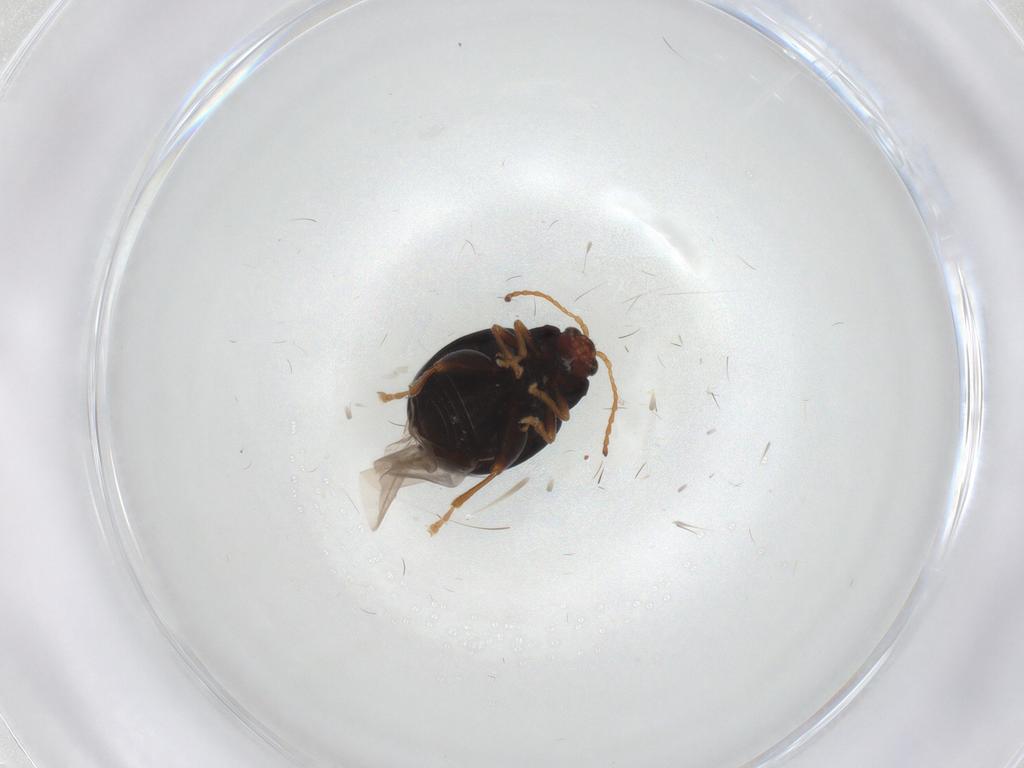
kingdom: Animalia
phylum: Arthropoda
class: Insecta
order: Coleoptera
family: Chrysomelidae
